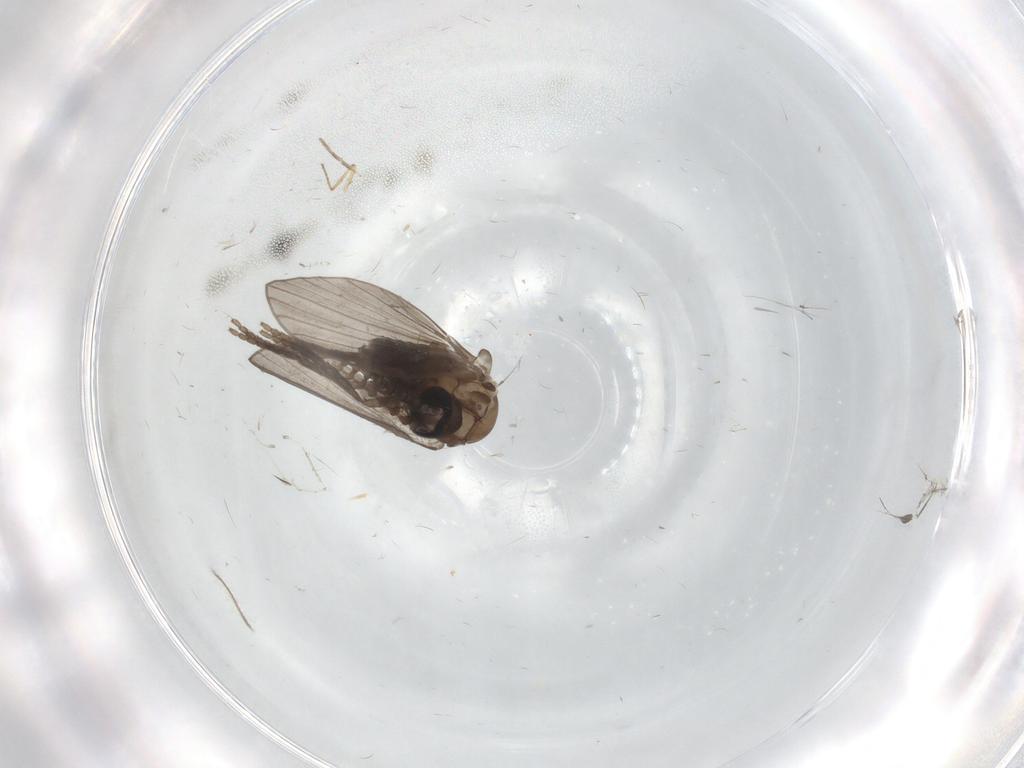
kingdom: Animalia
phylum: Arthropoda
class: Insecta
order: Diptera
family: Psychodidae
